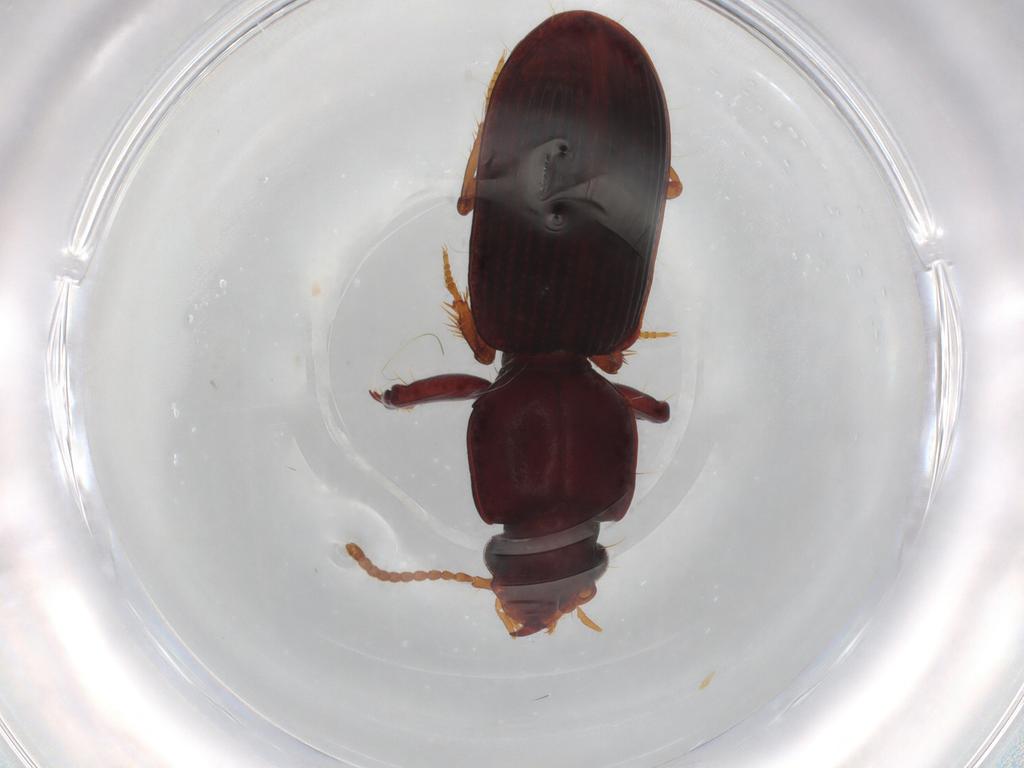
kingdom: Animalia
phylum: Arthropoda
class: Insecta
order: Coleoptera
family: Carabidae
